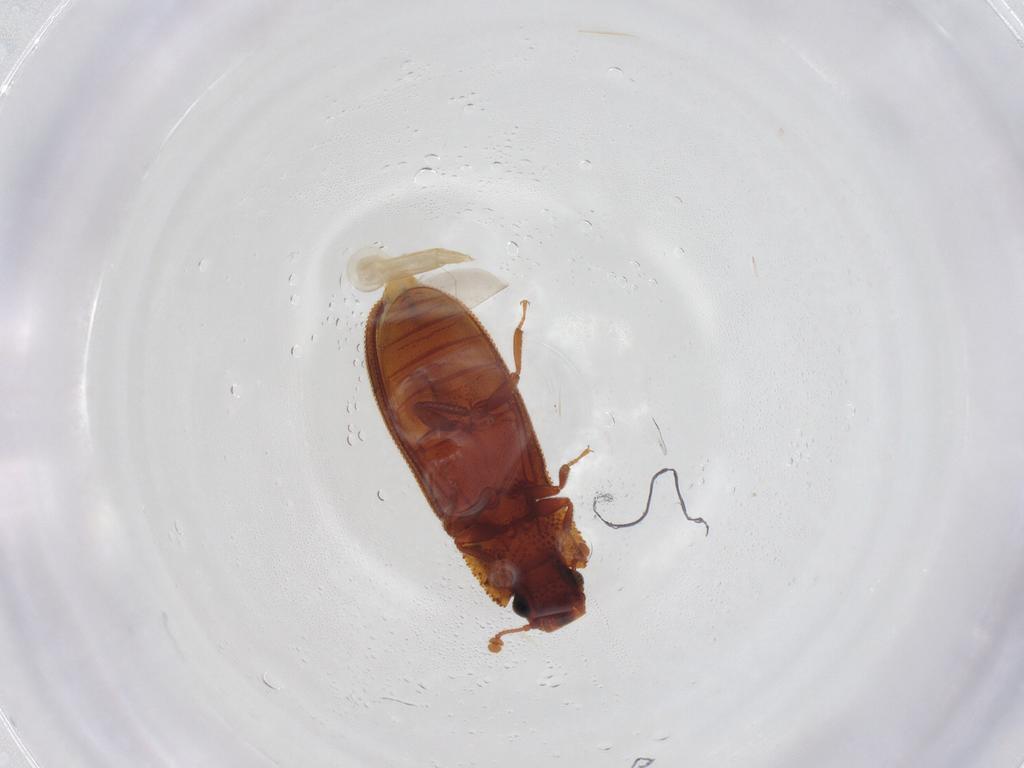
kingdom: Animalia
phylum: Arthropoda
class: Insecta
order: Coleoptera
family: Zopheridae
